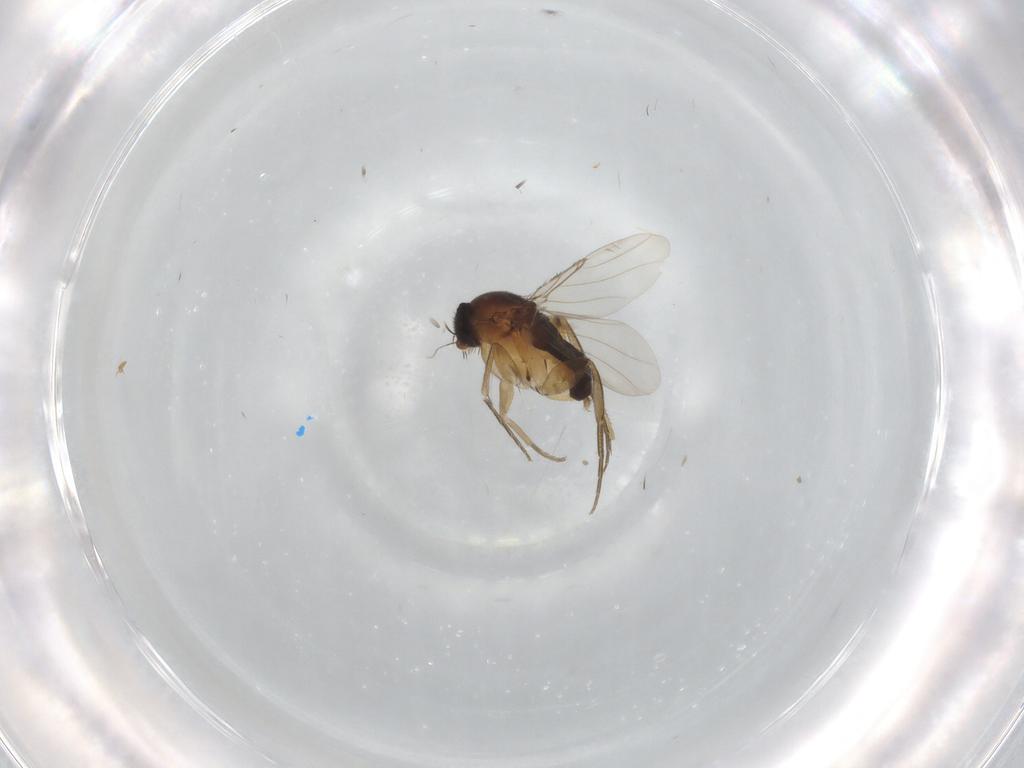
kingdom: Animalia
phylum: Arthropoda
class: Insecta
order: Diptera
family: Phoridae
